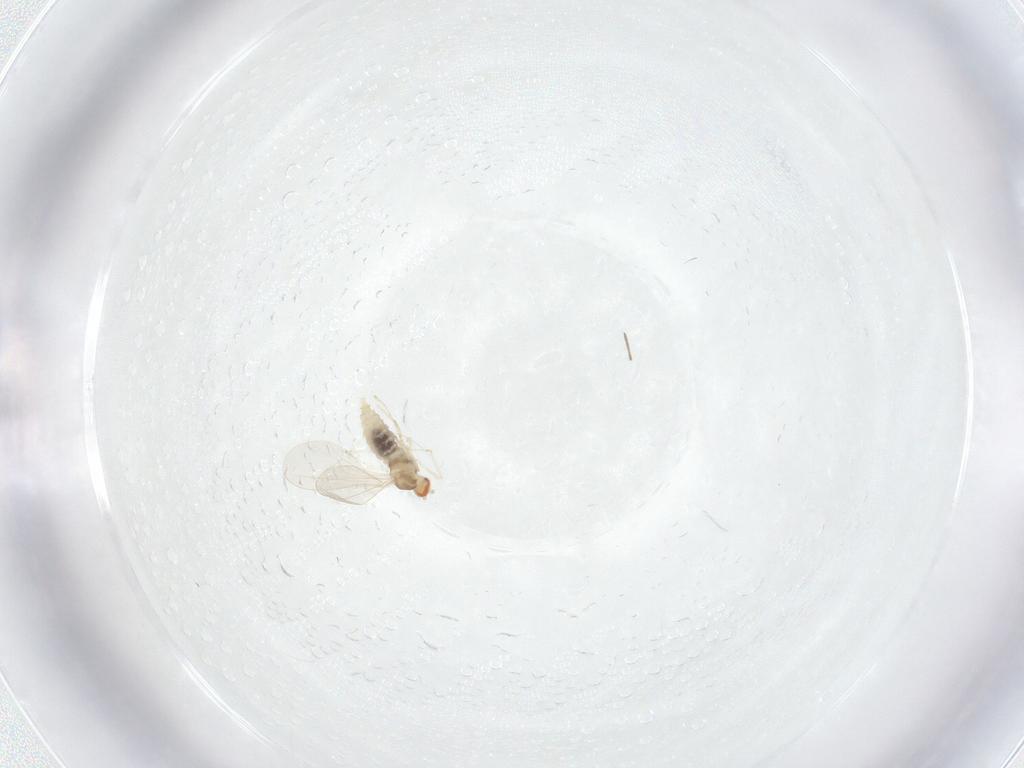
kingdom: Animalia
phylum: Arthropoda
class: Insecta
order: Diptera
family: Cecidomyiidae
